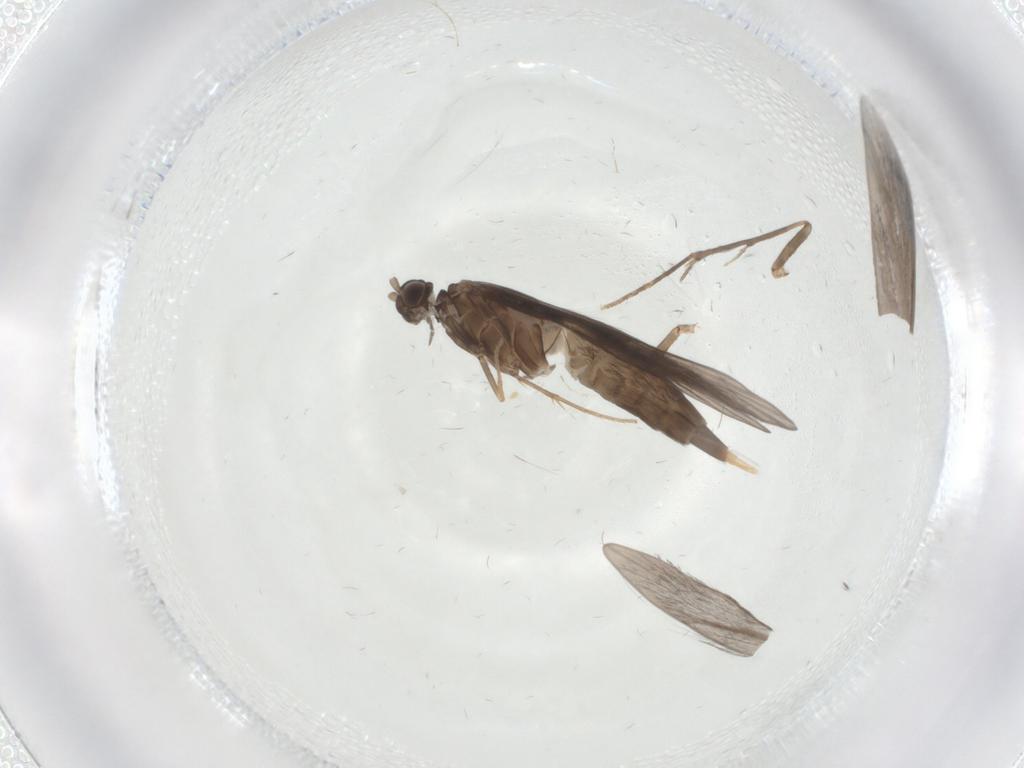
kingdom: Animalia
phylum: Arthropoda
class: Insecta
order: Trichoptera
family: Xiphocentronidae
